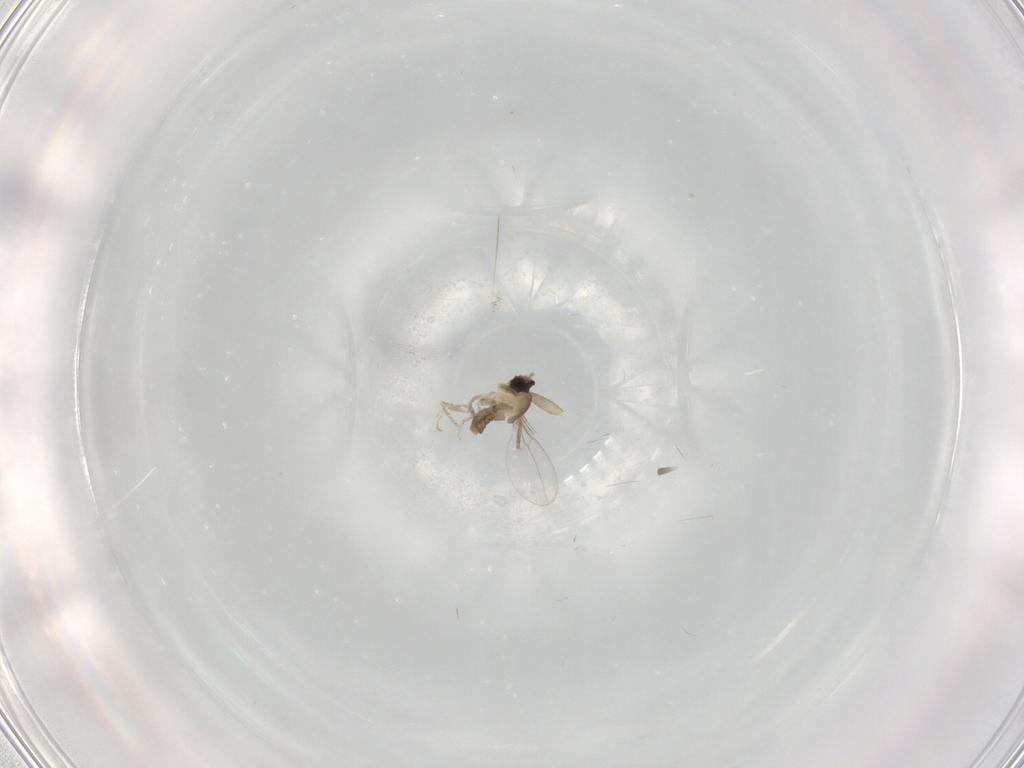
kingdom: Animalia
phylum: Arthropoda
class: Insecta
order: Diptera
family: Cecidomyiidae
